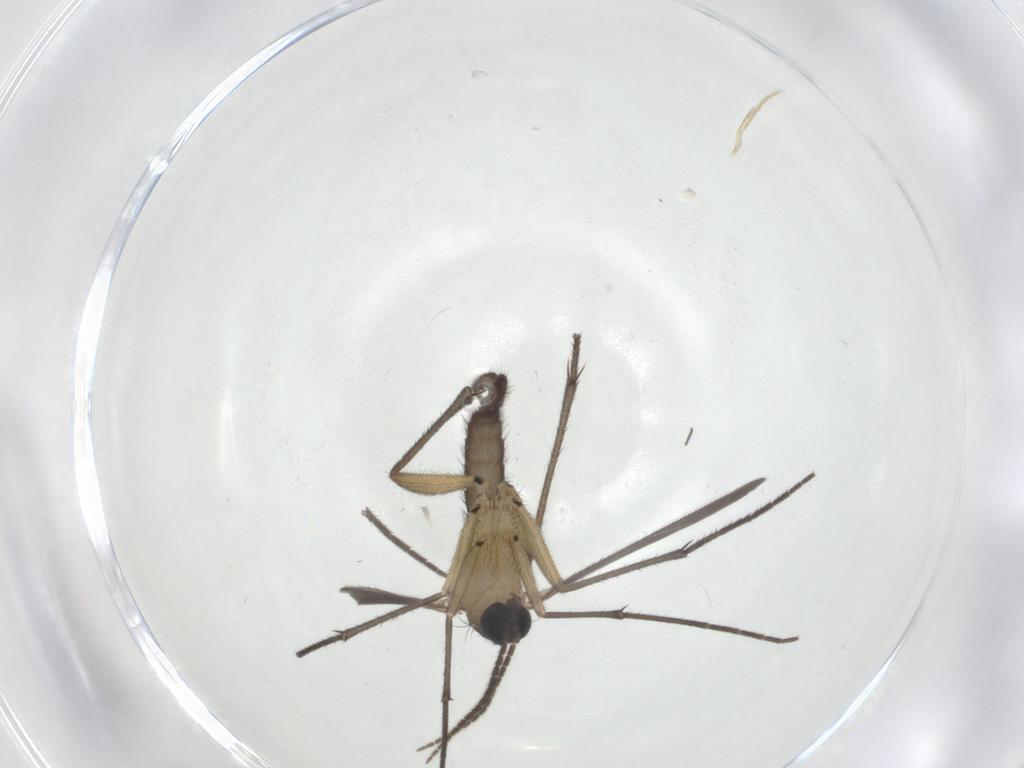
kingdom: Animalia
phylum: Arthropoda
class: Insecta
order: Diptera
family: Sciaridae
